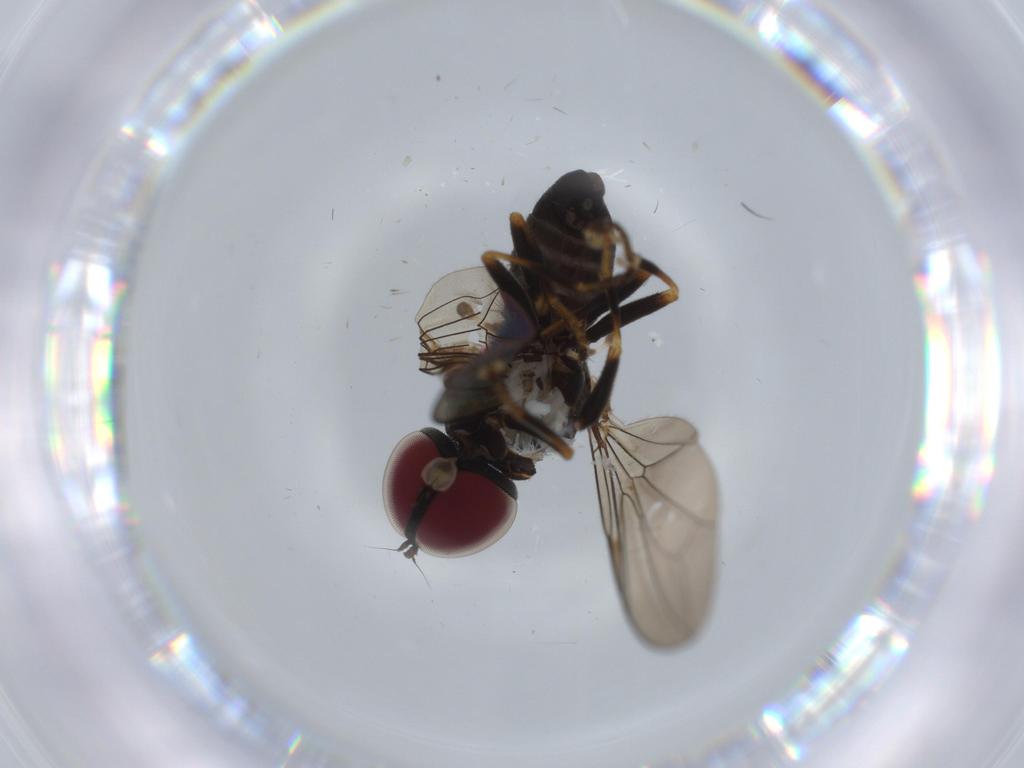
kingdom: Animalia
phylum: Arthropoda
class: Insecta
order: Diptera
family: Pipunculidae
